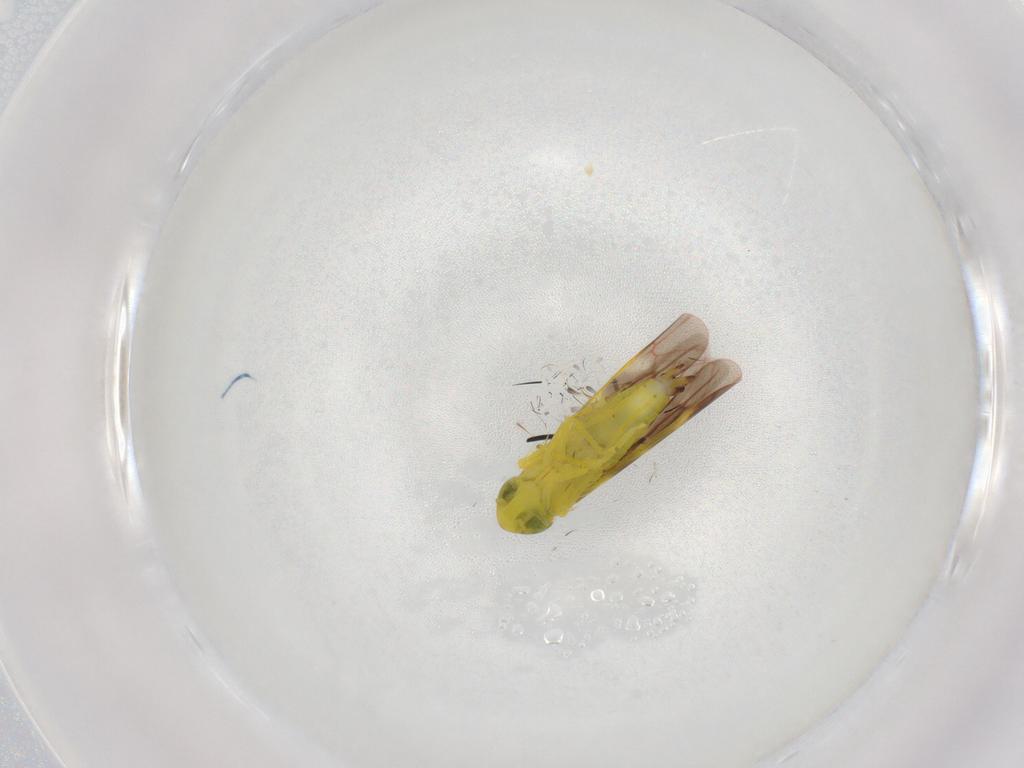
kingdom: Animalia
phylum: Arthropoda
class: Insecta
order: Hemiptera
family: Cicadellidae
